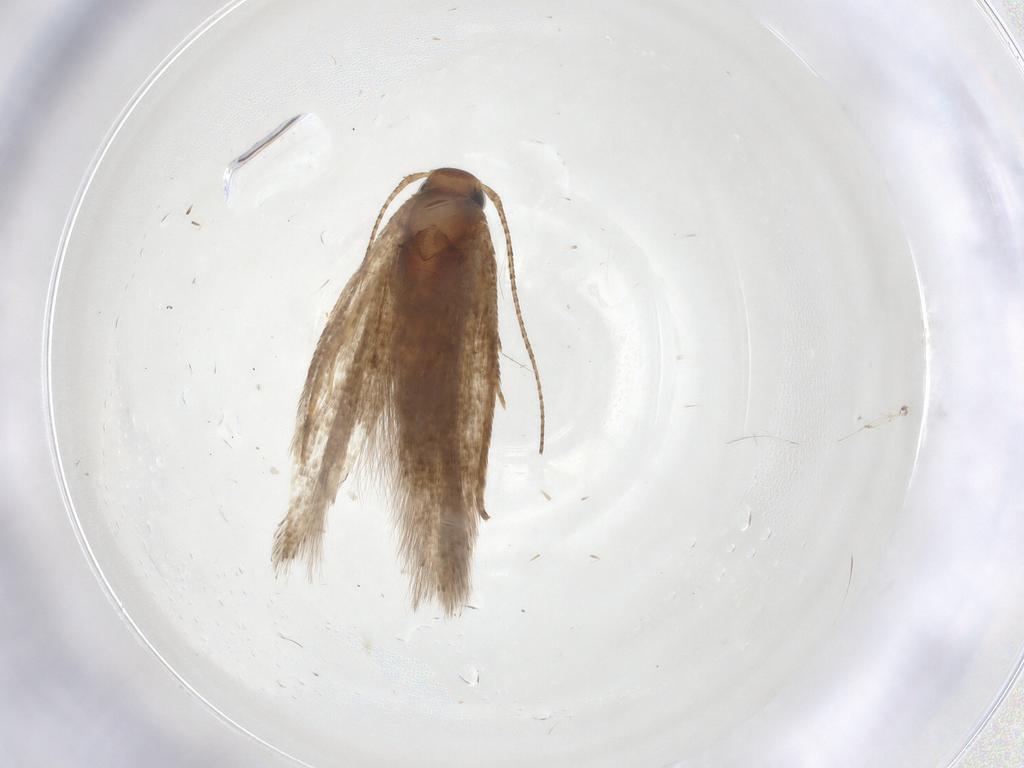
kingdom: Animalia
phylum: Arthropoda
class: Insecta
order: Lepidoptera
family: Gelechiidae
